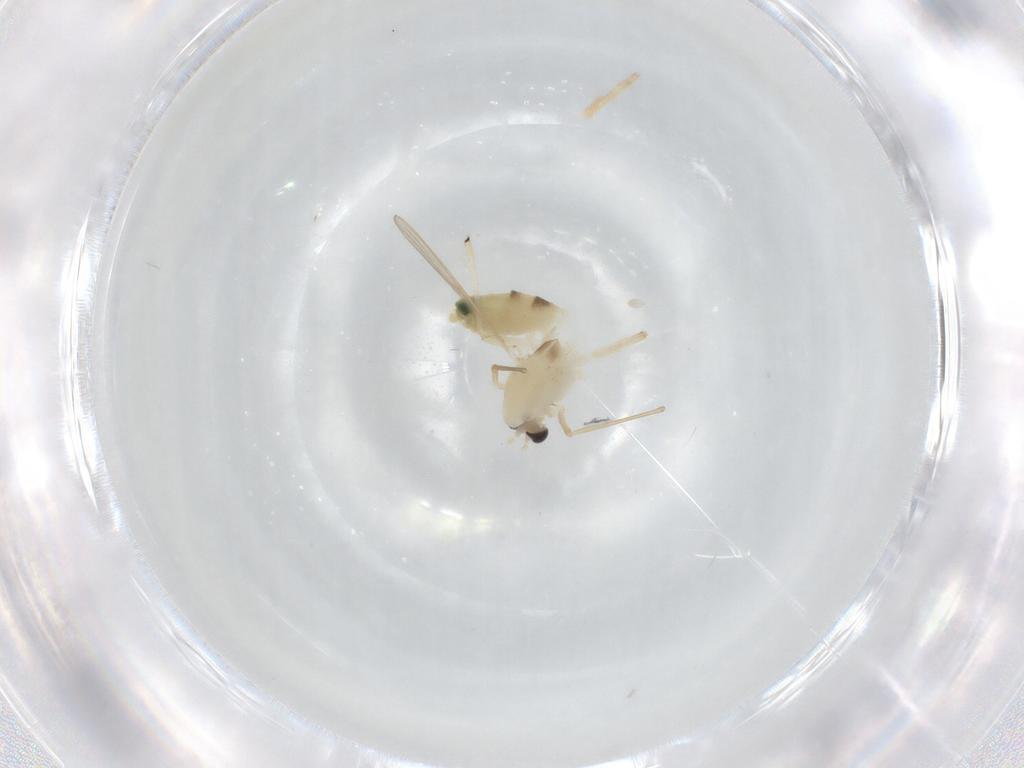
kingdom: Animalia
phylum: Arthropoda
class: Insecta
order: Diptera
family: Chironomidae
